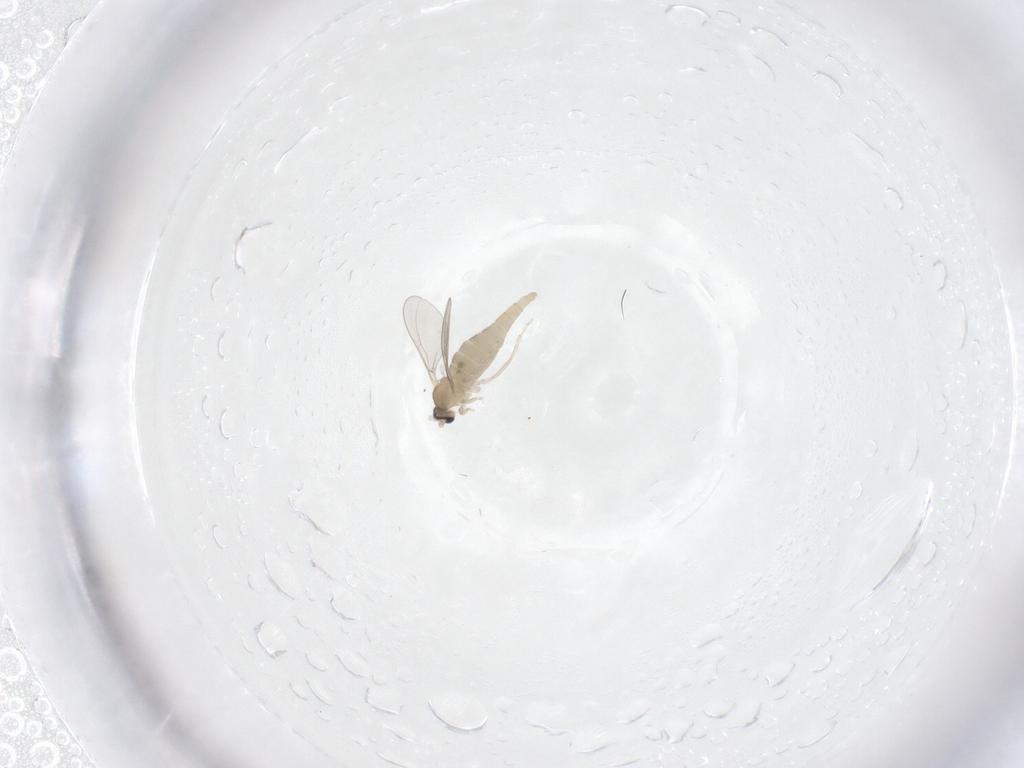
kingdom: Animalia
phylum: Arthropoda
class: Insecta
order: Diptera
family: Cecidomyiidae
